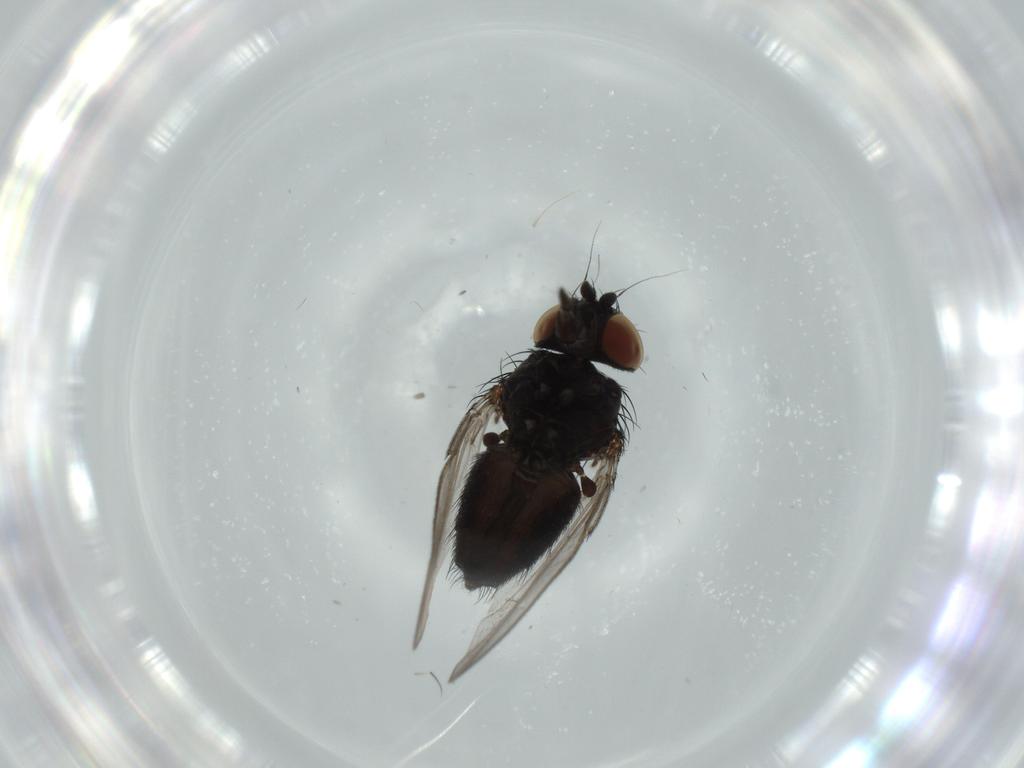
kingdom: Animalia
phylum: Arthropoda
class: Insecta
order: Diptera
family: Milichiidae
